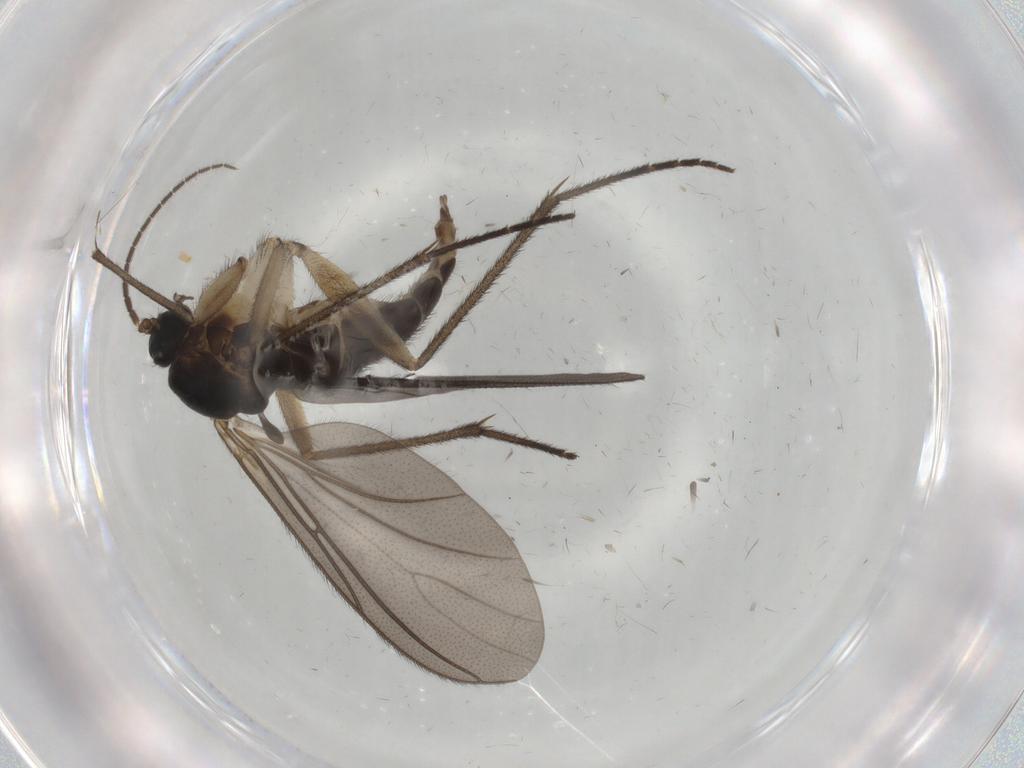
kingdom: Animalia
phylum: Arthropoda
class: Insecta
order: Diptera
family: Sciaridae
